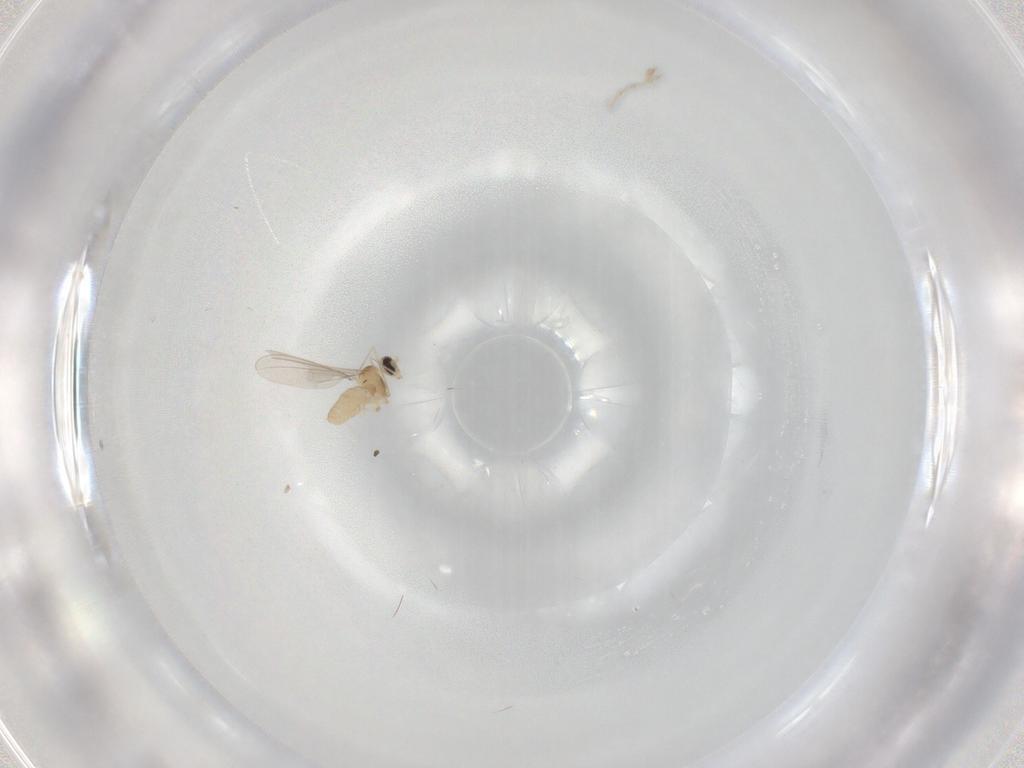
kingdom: Animalia
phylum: Arthropoda
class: Insecta
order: Diptera
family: Cecidomyiidae
